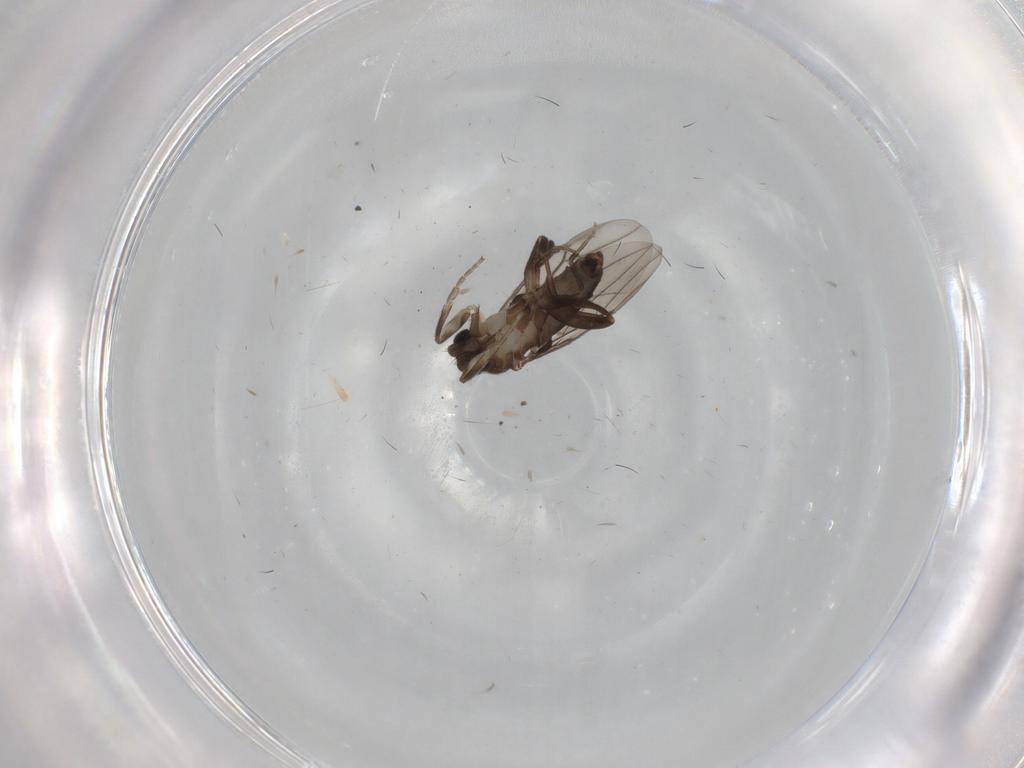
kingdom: Animalia
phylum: Arthropoda
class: Insecta
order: Diptera
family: Phoridae
